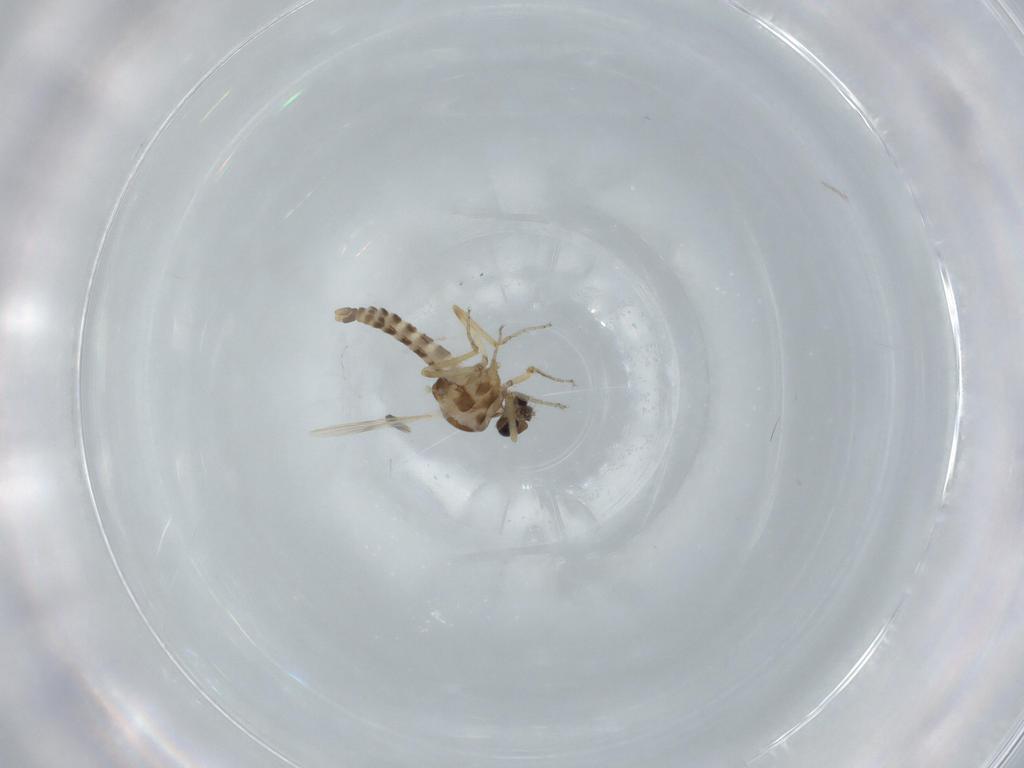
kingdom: Animalia
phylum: Arthropoda
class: Insecta
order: Diptera
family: Ceratopogonidae
